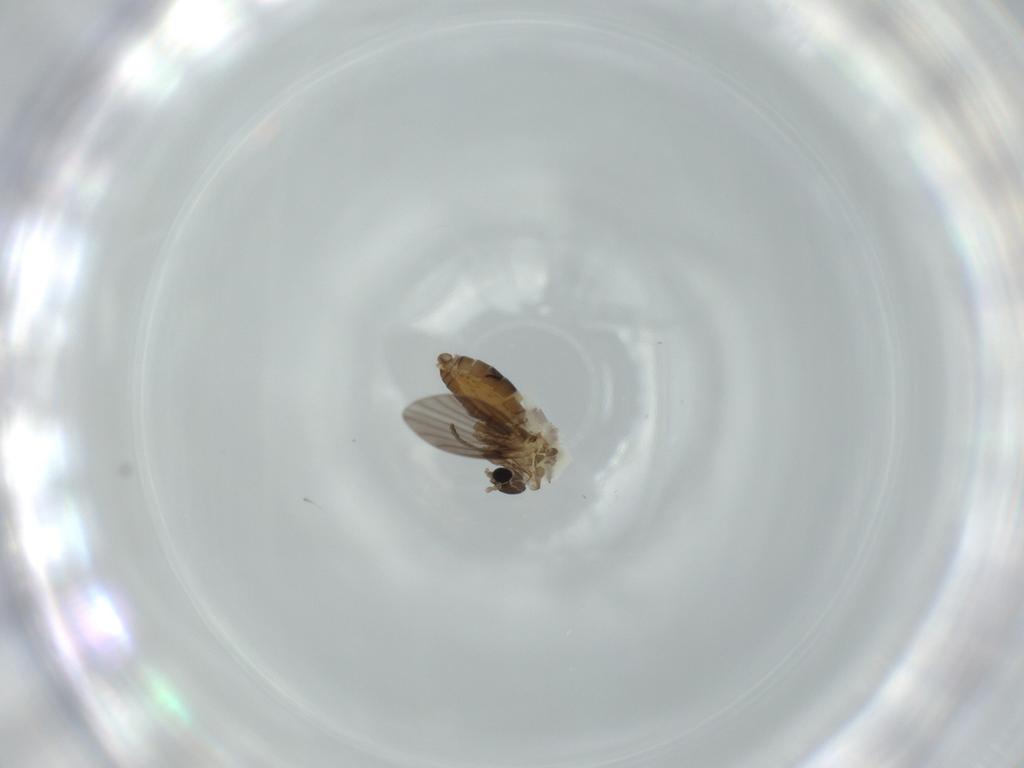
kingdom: Animalia
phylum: Arthropoda
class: Insecta
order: Diptera
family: Psychodidae
